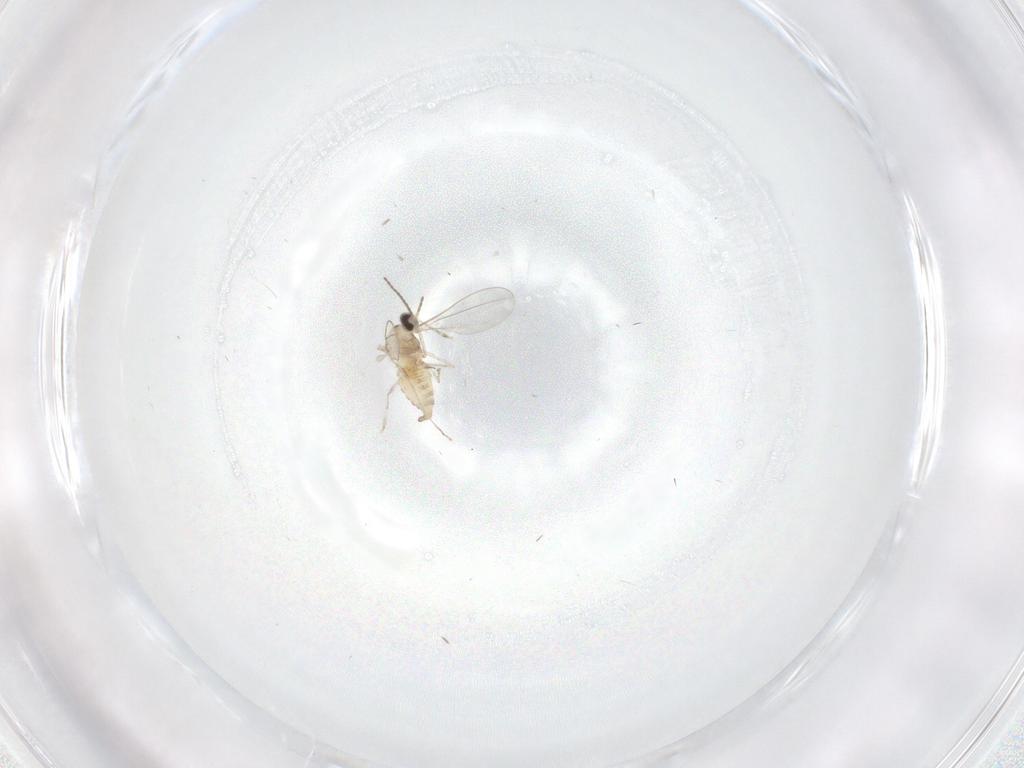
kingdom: Animalia
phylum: Arthropoda
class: Insecta
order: Diptera
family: Cecidomyiidae
